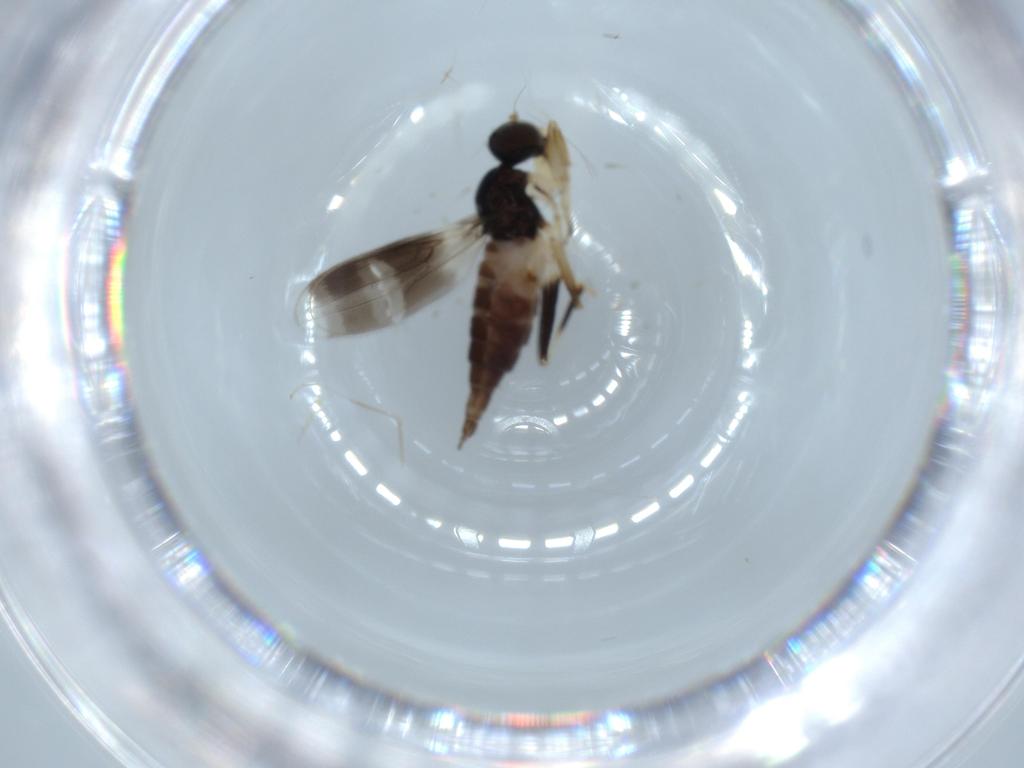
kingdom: Animalia
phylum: Arthropoda
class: Insecta
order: Diptera
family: Hybotidae
